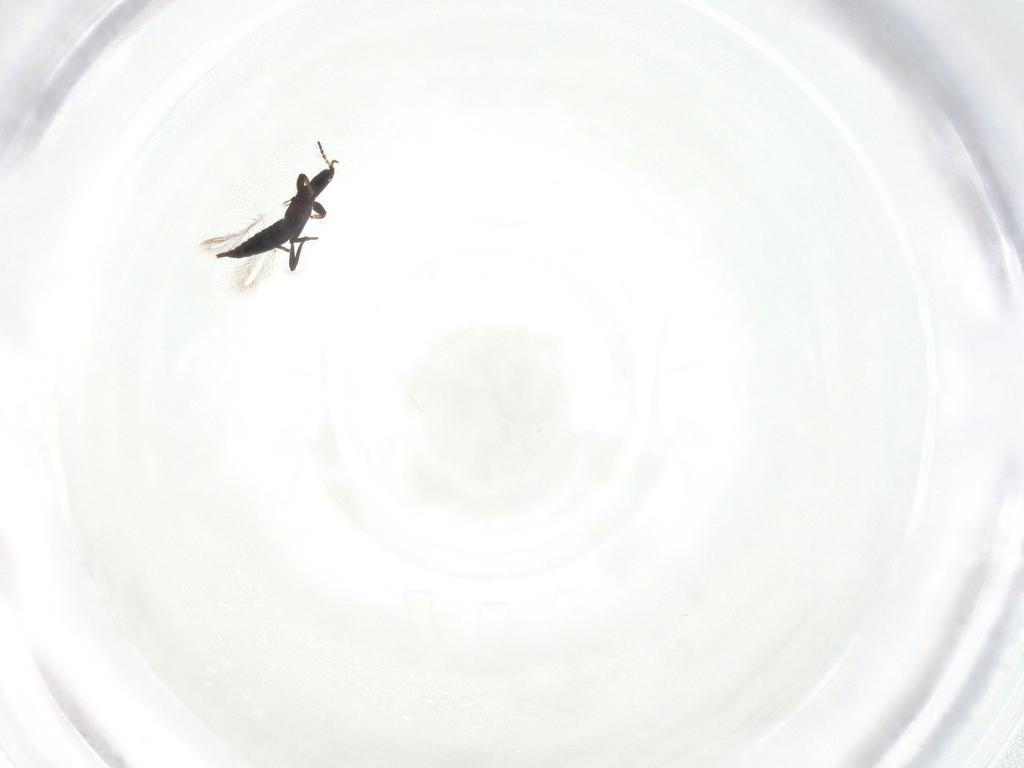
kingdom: Animalia
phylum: Arthropoda
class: Insecta
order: Thysanoptera
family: Phlaeothripidae
